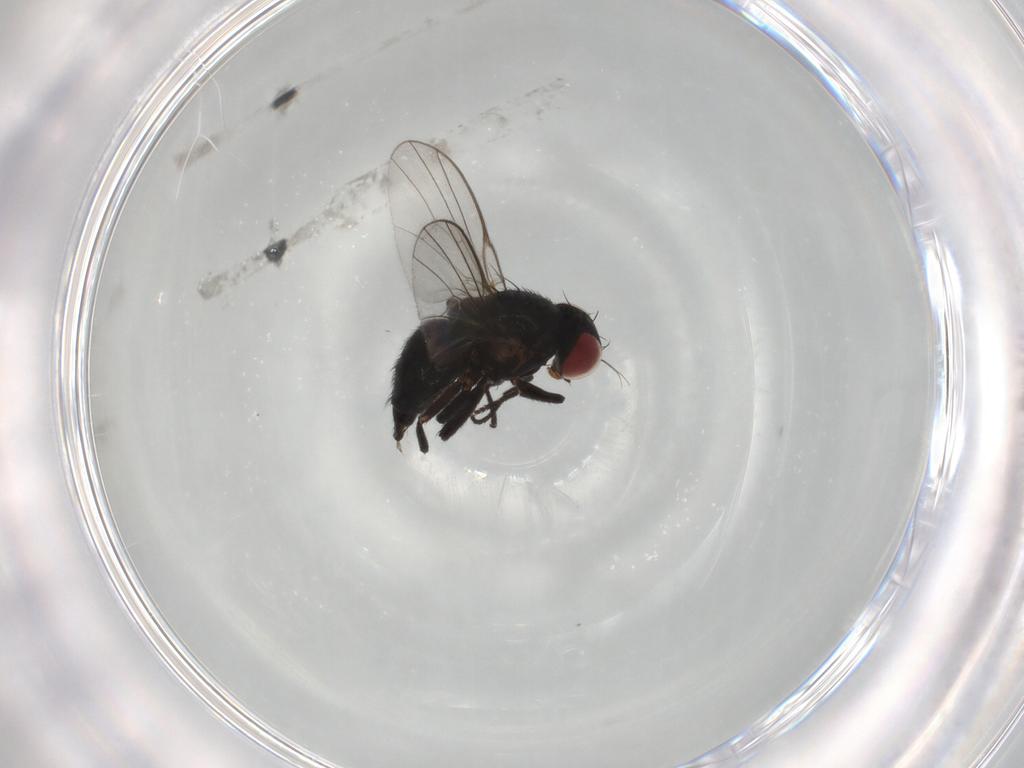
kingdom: Animalia
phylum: Arthropoda
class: Insecta
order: Diptera
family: Agromyzidae
